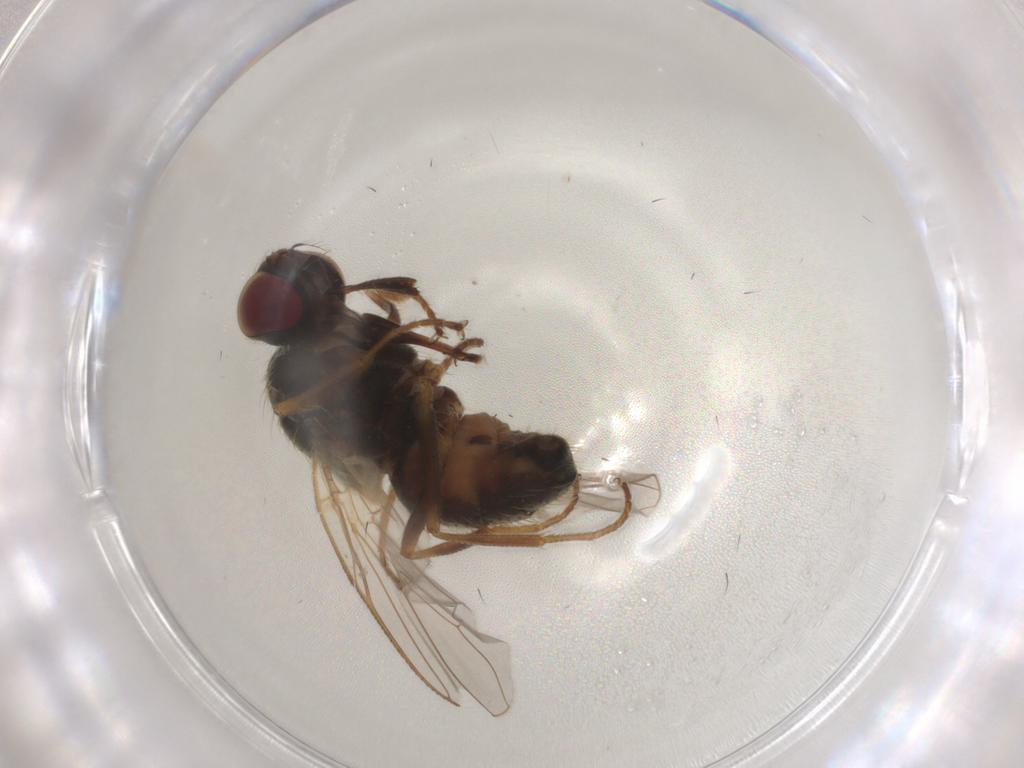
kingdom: Animalia
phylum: Arthropoda
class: Insecta
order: Diptera
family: Muscidae
